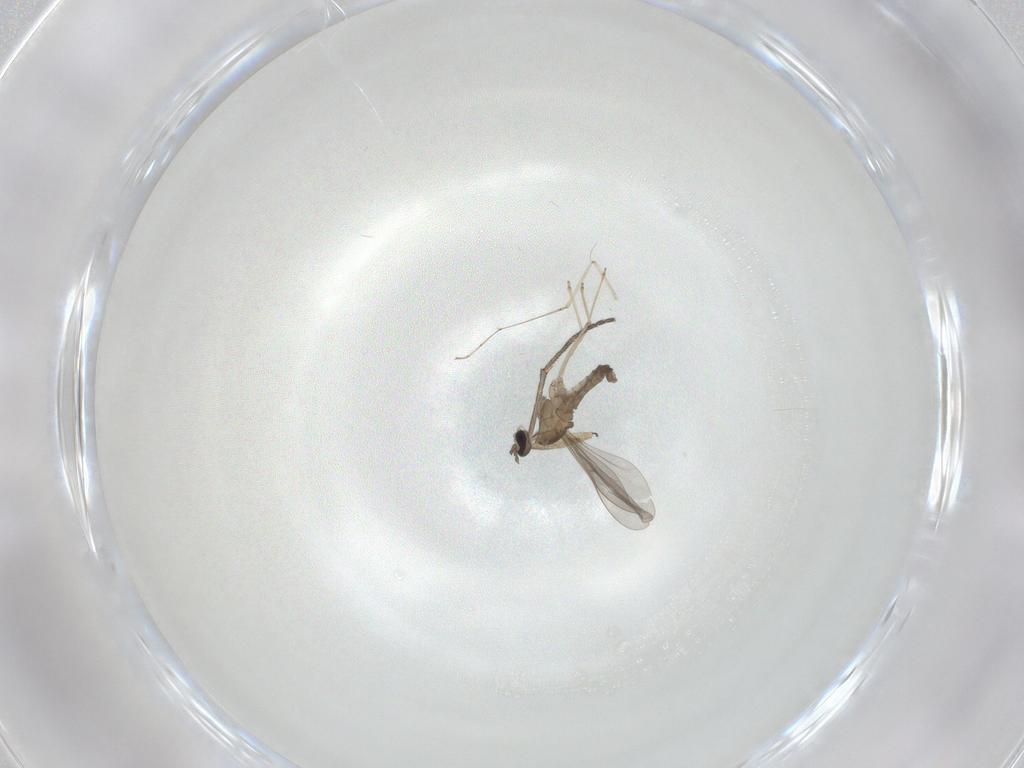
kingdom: Animalia
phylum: Arthropoda
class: Insecta
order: Diptera
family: Cecidomyiidae
